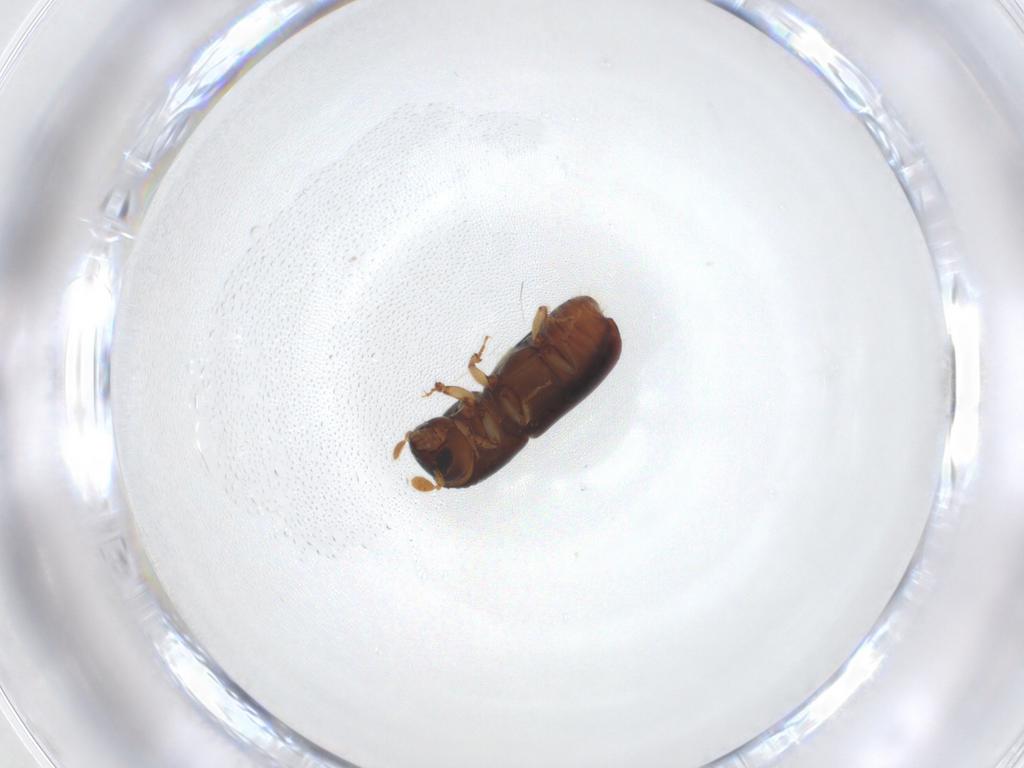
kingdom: Animalia
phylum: Arthropoda
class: Insecta
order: Coleoptera
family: Curculionidae
